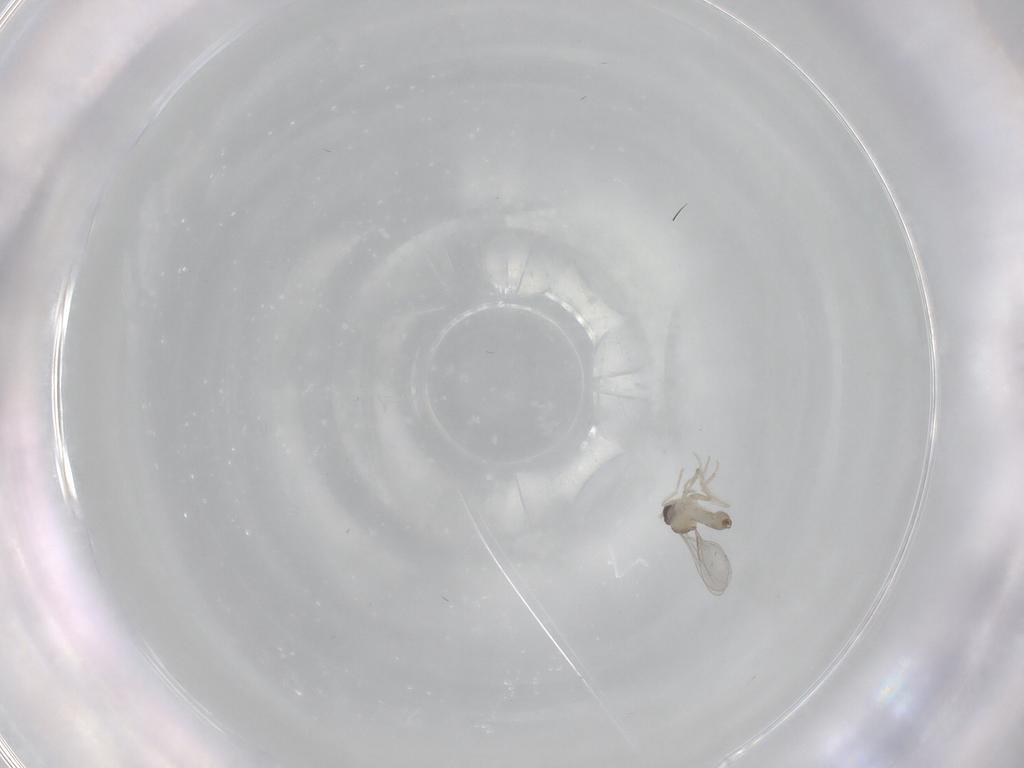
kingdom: Animalia
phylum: Arthropoda
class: Insecta
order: Diptera
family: Cecidomyiidae
